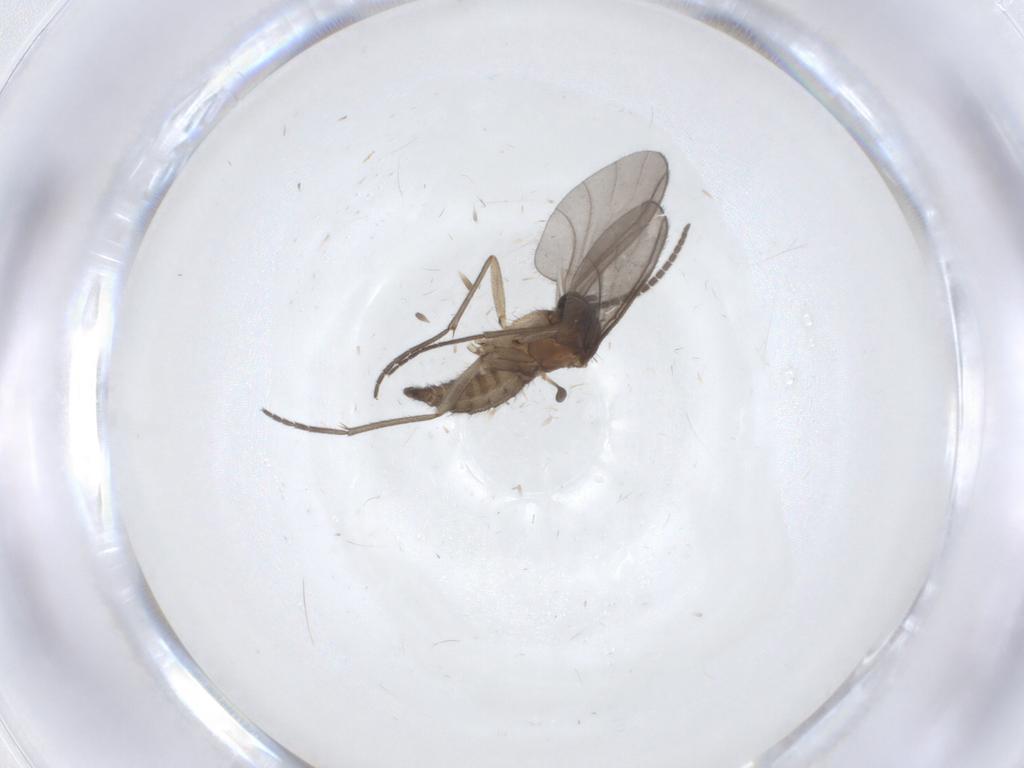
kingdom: Animalia
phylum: Arthropoda
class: Insecta
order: Diptera
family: Sciaridae
